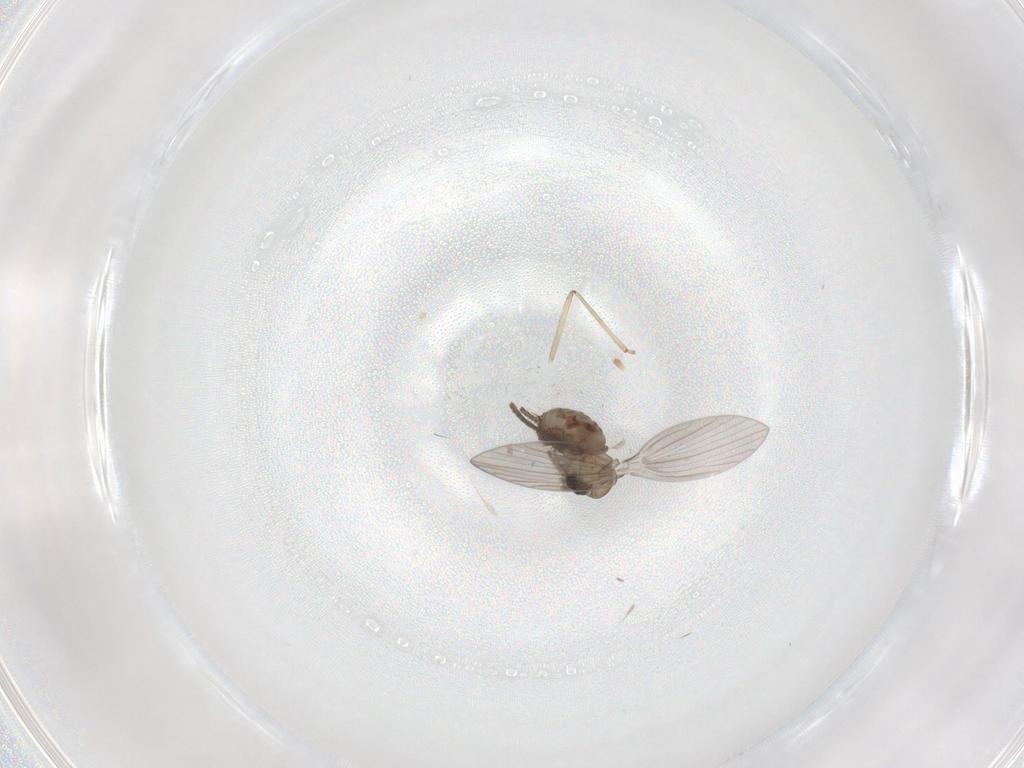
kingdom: Animalia
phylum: Arthropoda
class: Insecta
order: Diptera
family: Psychodidae
